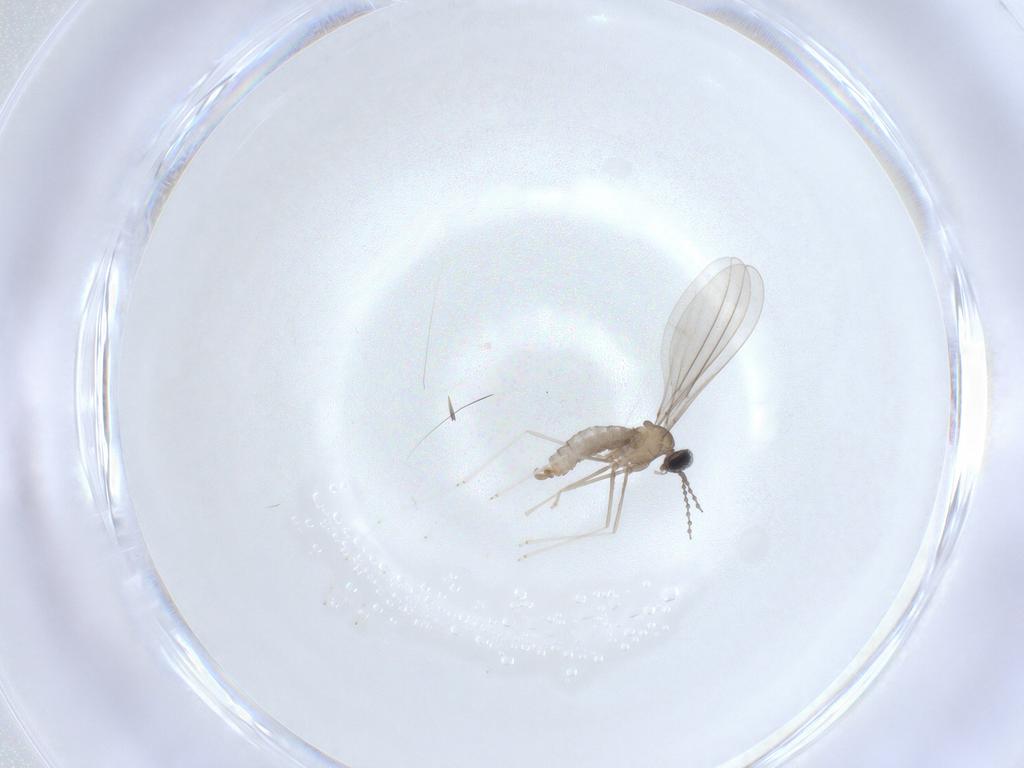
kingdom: Animalia
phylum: Arthropoda
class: Insecta
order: Diptera
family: Cecidomyiidae
